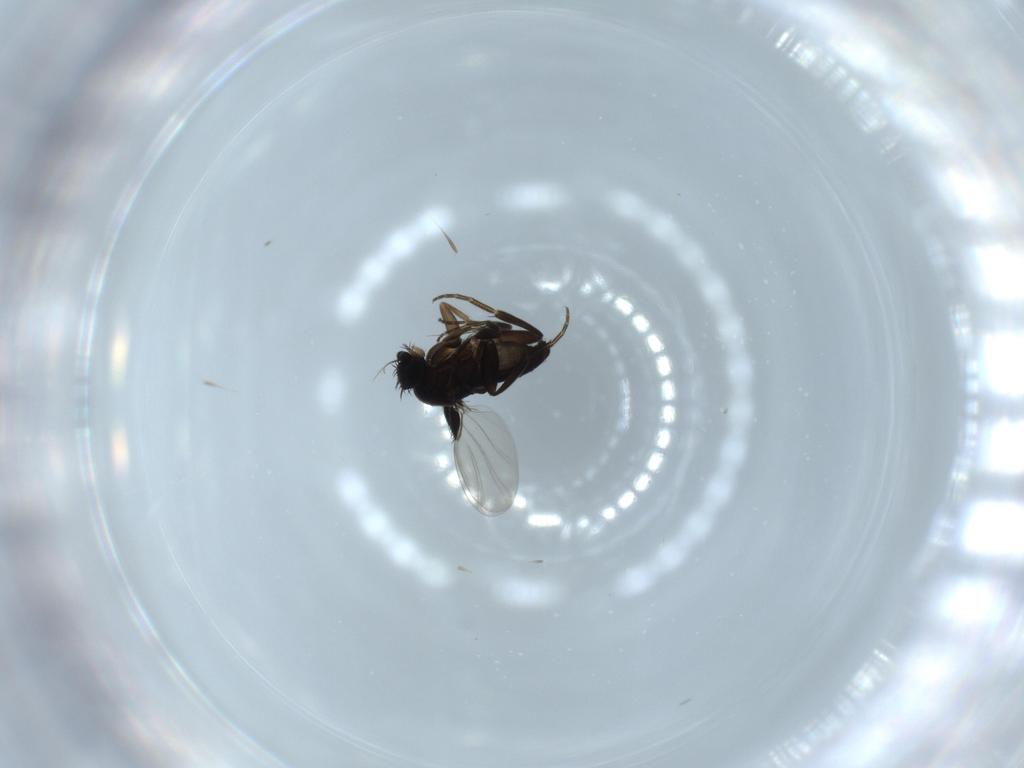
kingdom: Animalia
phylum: Arthropoda
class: Insecta
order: Diptera
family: Phoridae
